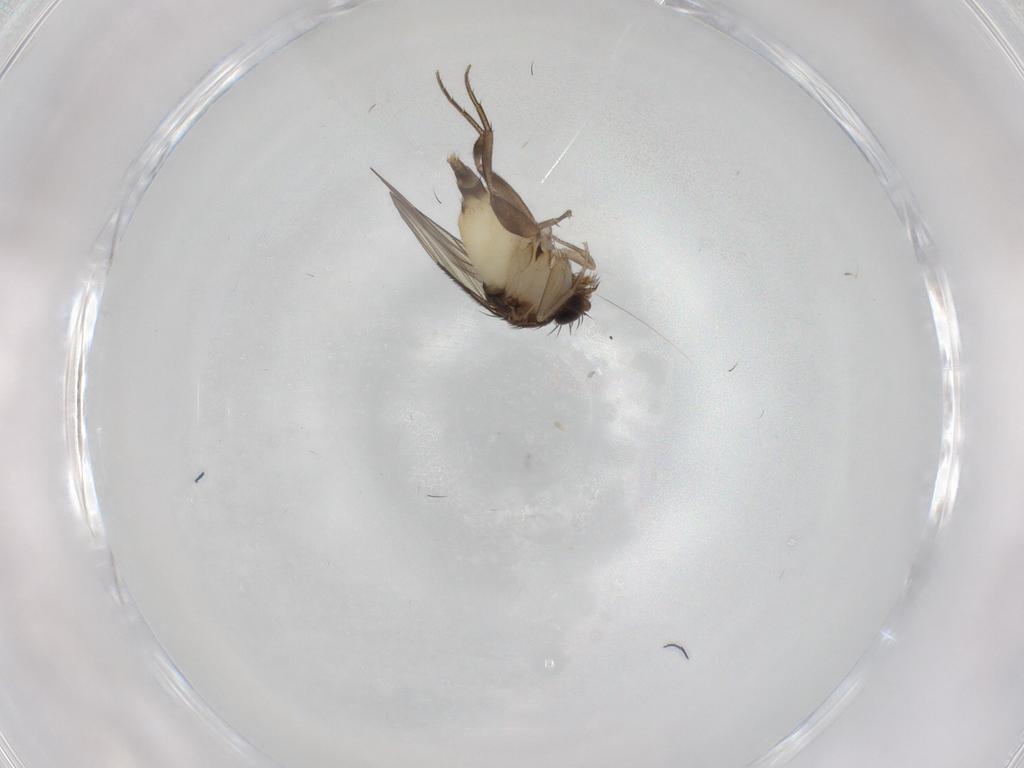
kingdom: Animalia
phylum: Arthropoda
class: Insecta
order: Diptera
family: Phoridae
